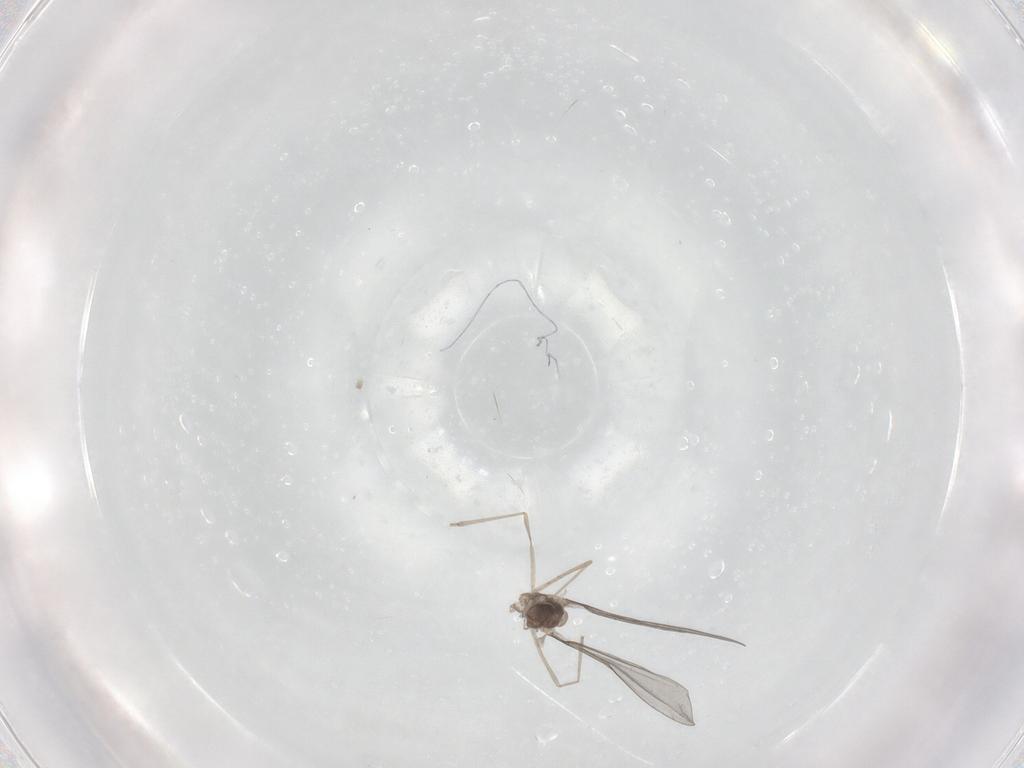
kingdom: Animalia
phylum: Arthropoda
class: Insecta
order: Diptera
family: Cecidomyiidae
